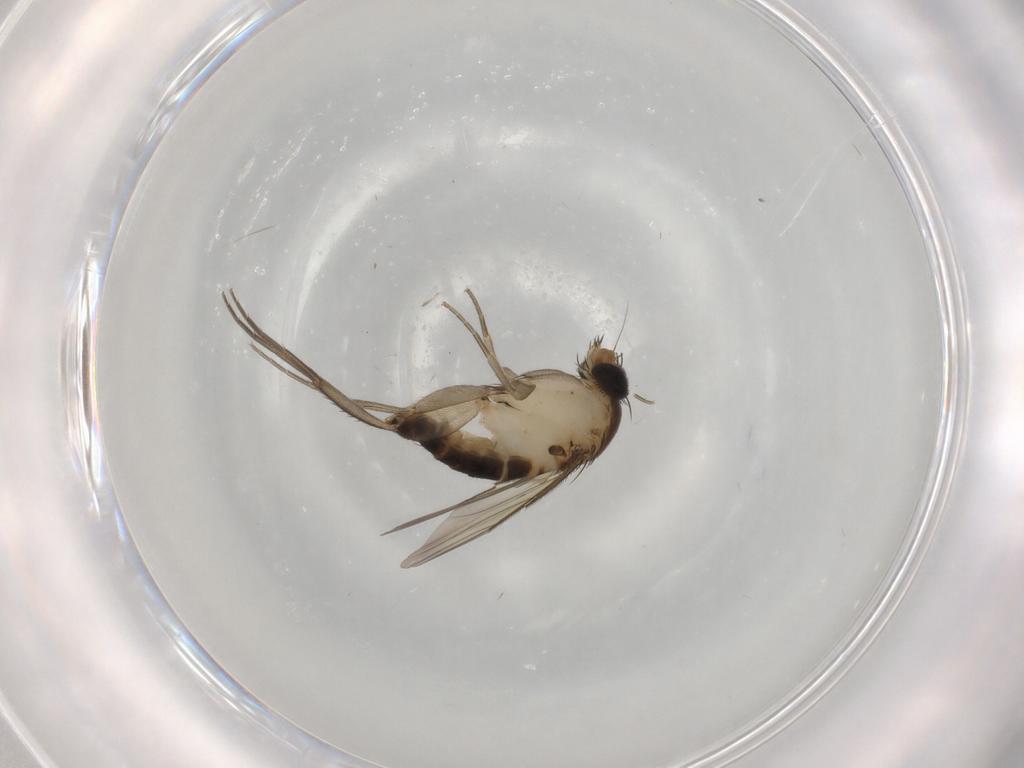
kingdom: Animalia
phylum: Arthropoda
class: Insecta
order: Diptera
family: Phoridae
